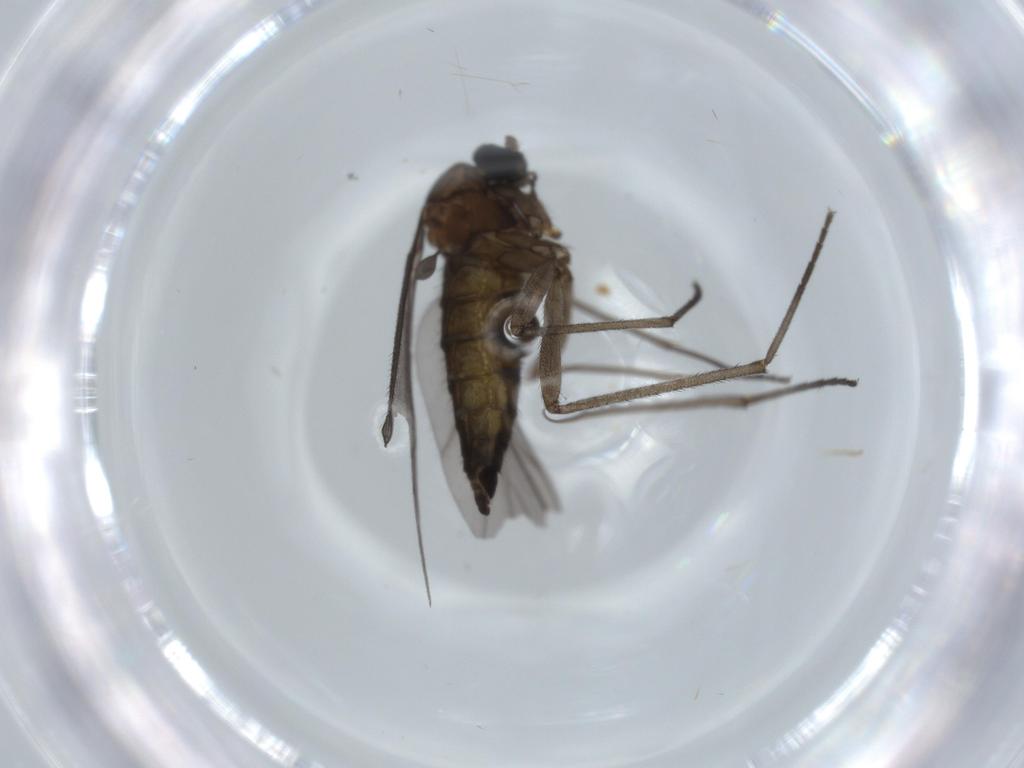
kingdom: Animalia
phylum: Arthropoda
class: Insecta
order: Diptera
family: Sciaridae
